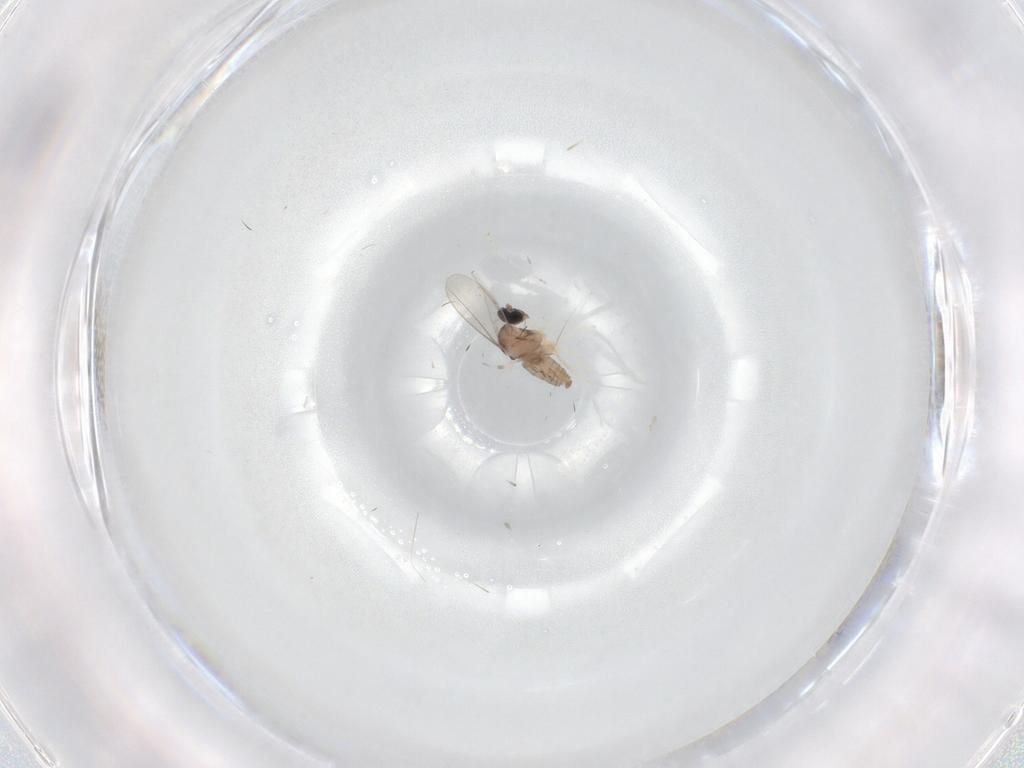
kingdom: Animalia
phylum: Arthropoda
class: Insecta
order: Diptera
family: Cecidomyiidae
